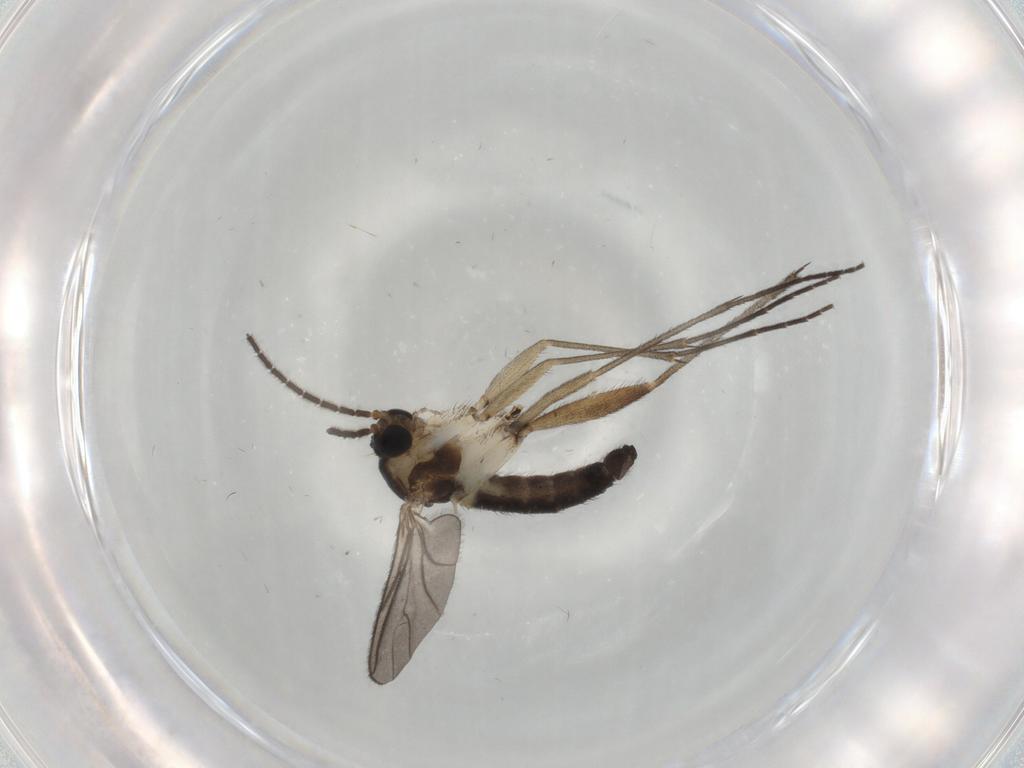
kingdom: Animalia
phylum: Arthropoda
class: Insecta
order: Diptera
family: Sciaridae
